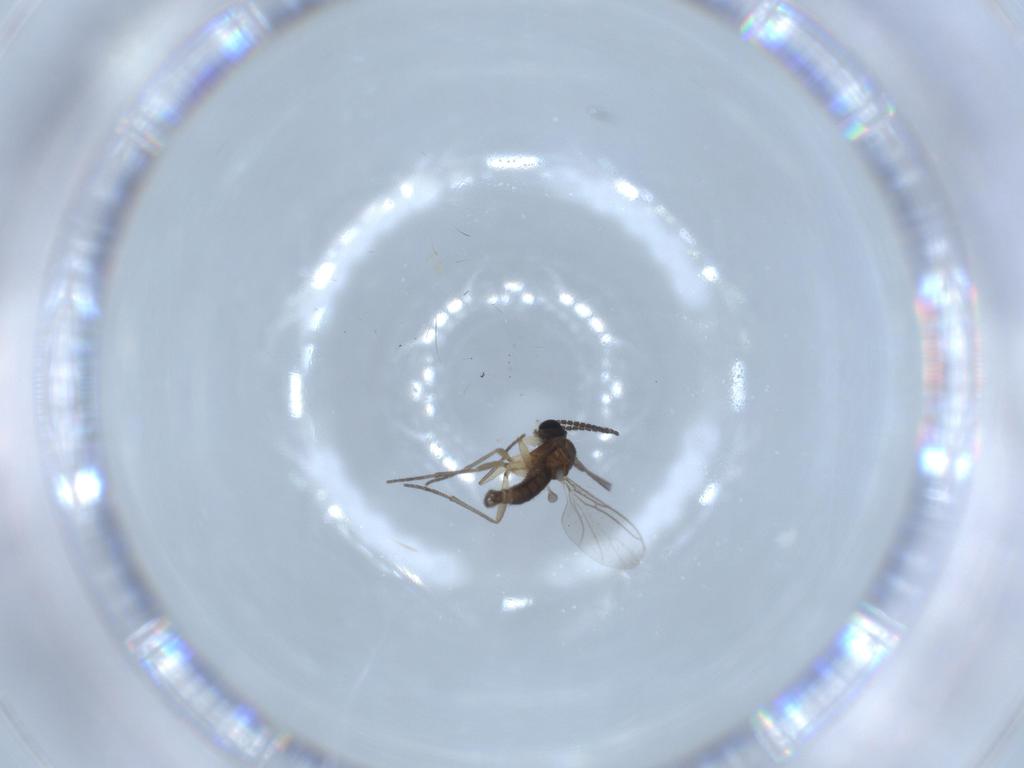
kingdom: Animalia
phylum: Arthropoda
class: Insecta
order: Diptera
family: Sciaridae
